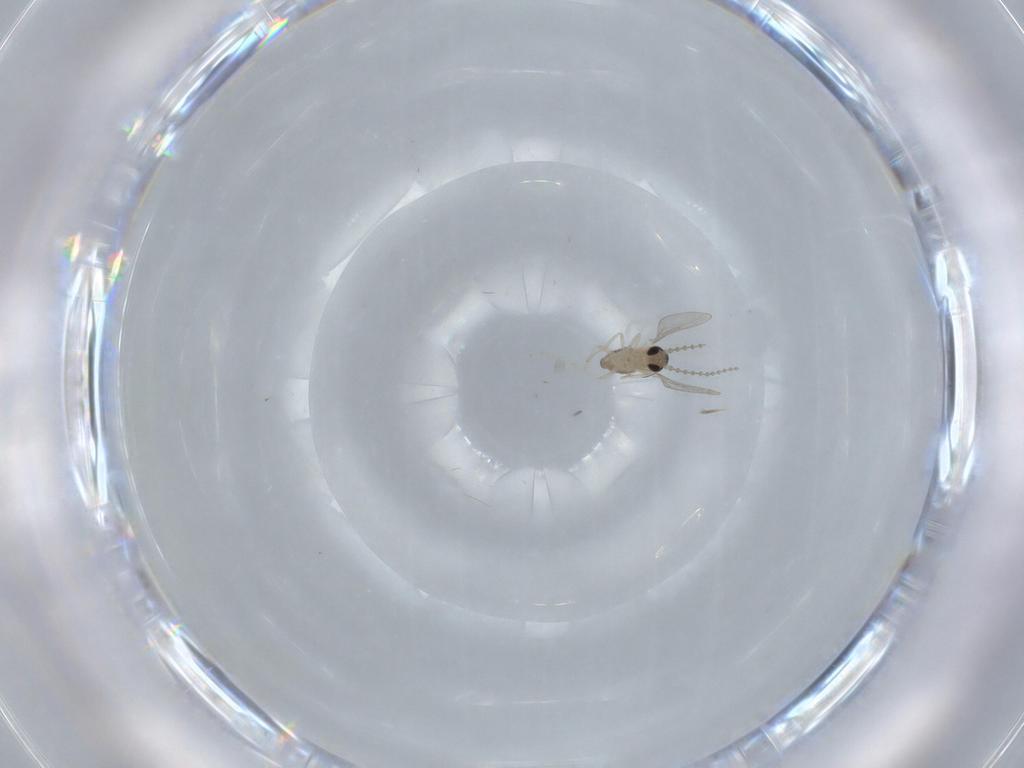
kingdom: Animalia
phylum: Arthropoda
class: Insecta
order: Diptera
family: Cecidomyiidae
